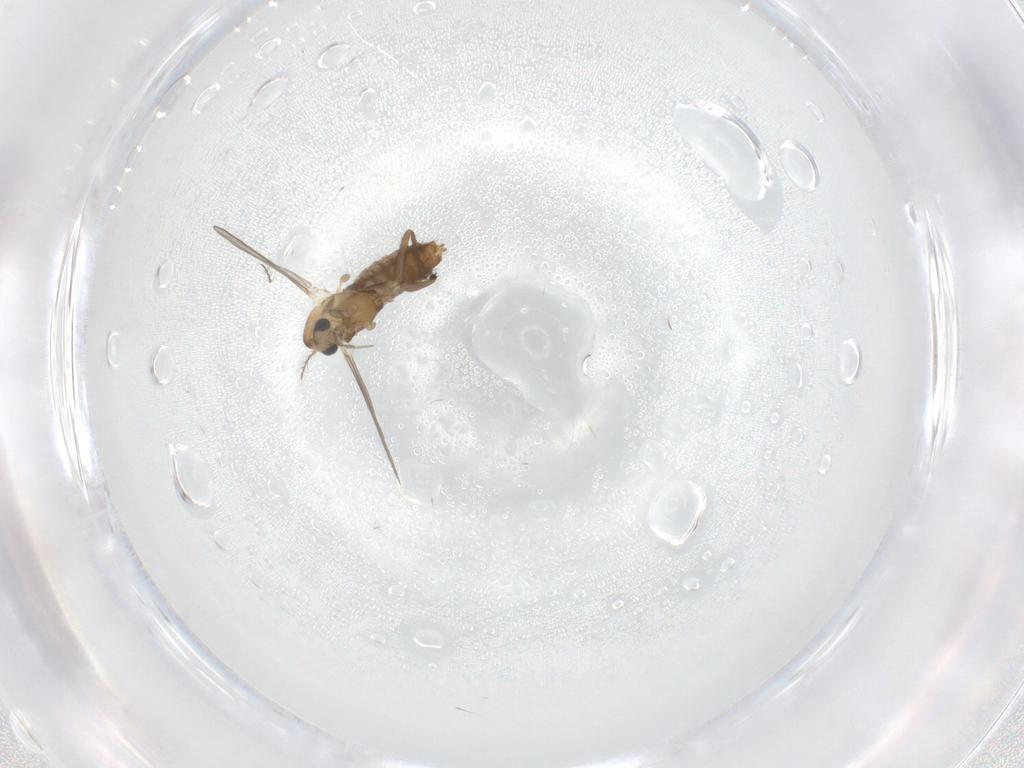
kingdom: Animalia
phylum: Arthropoda
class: Insecta
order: Diptera
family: Chironomidae
